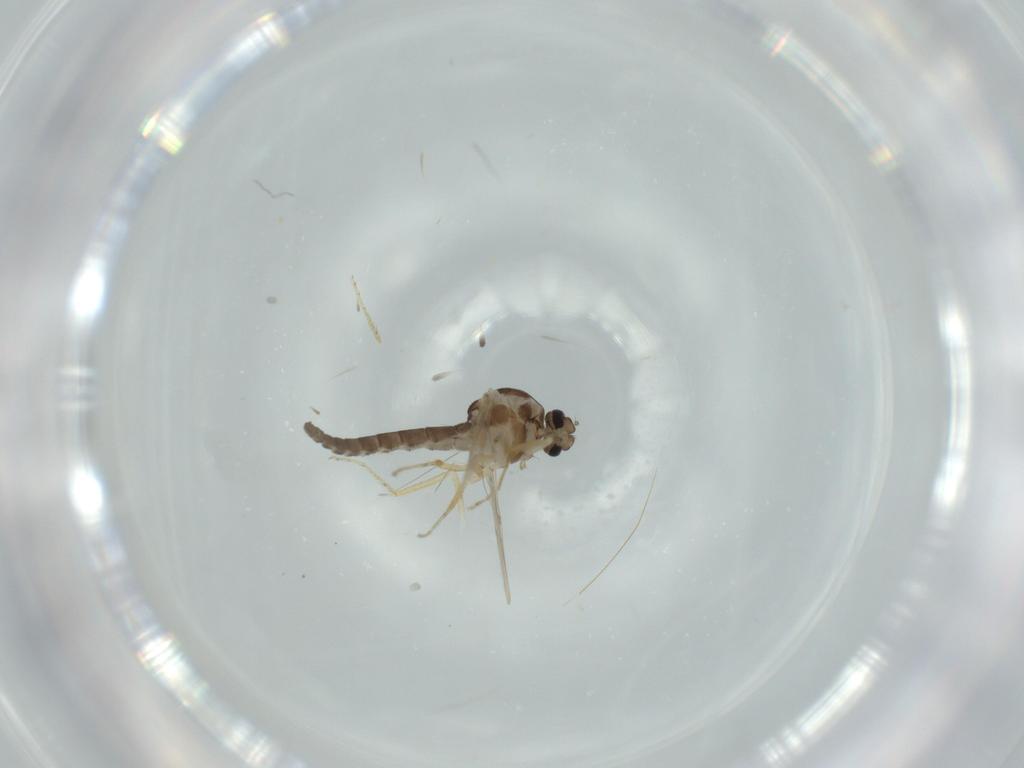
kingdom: Animalia
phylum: Arthropoda
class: Insecta
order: Diptera
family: Ceratopogonidae
